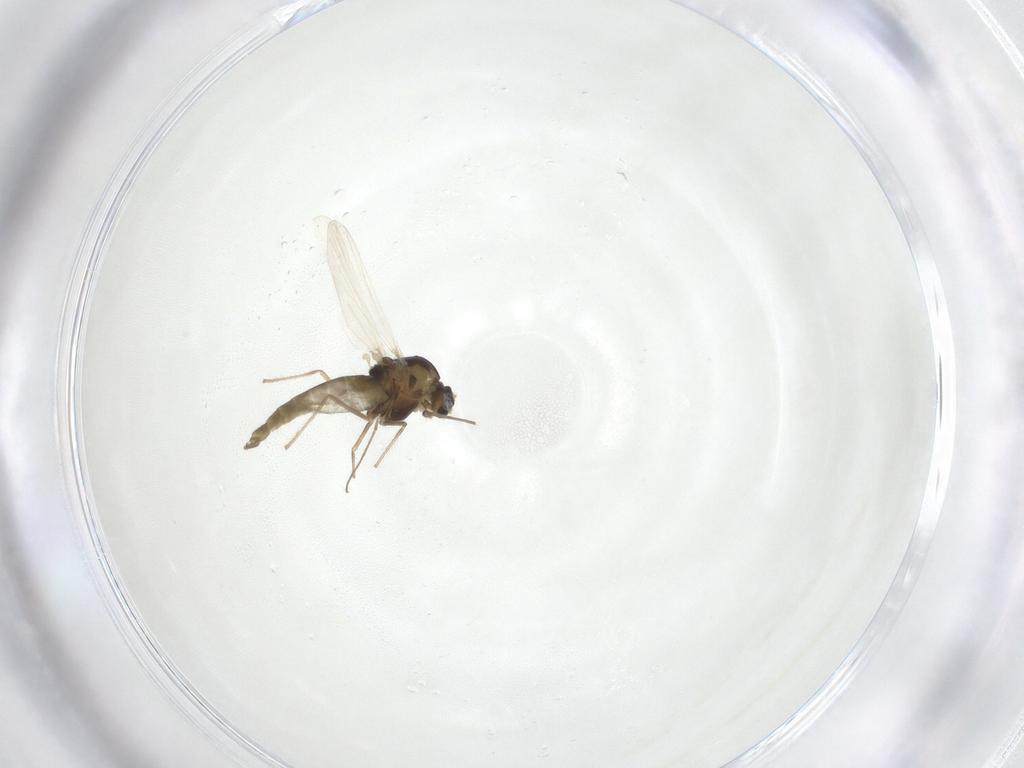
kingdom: Animalia
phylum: Arthropoda
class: Insecta
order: Diptera
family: Chironomidae
